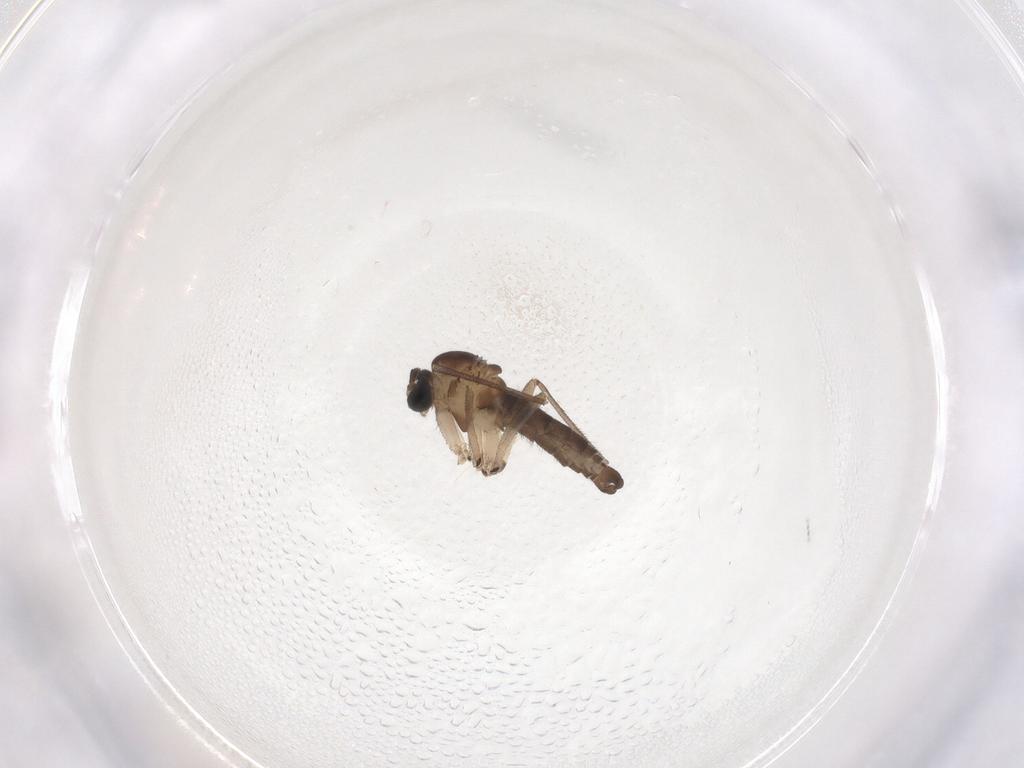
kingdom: Animalia
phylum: Arthropoda
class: Insecta
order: Diptera
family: Sciaridae
